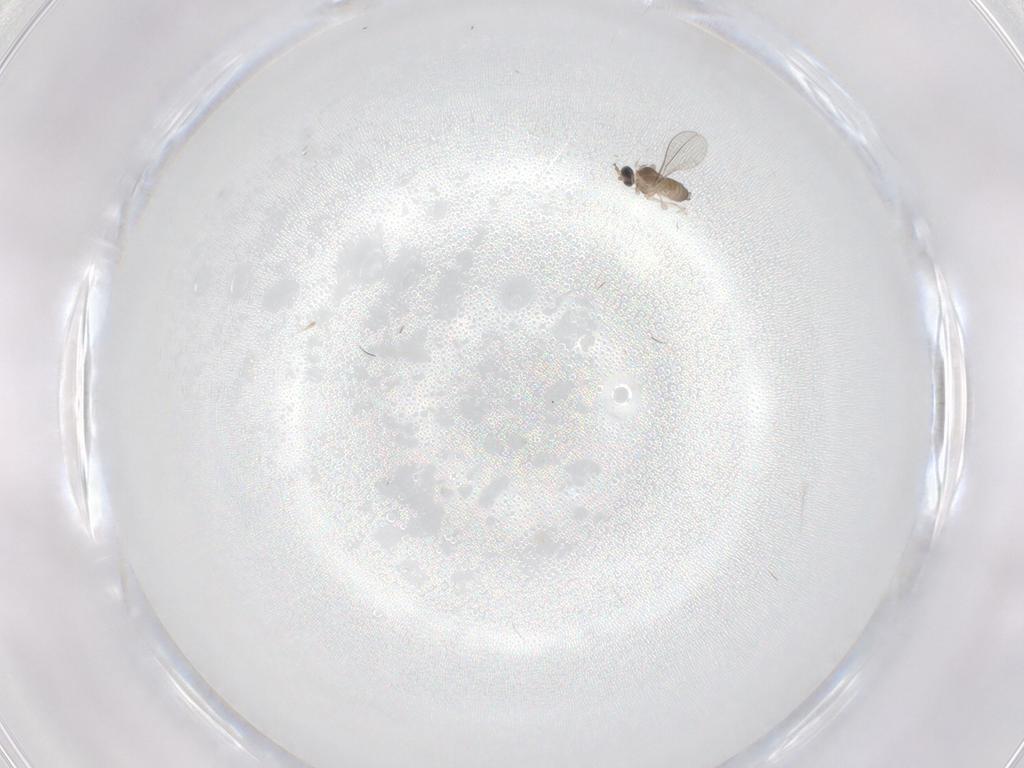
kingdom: Animalia
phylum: Arthropoda
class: Insecta
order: Diptera
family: Cecidomyiidae
